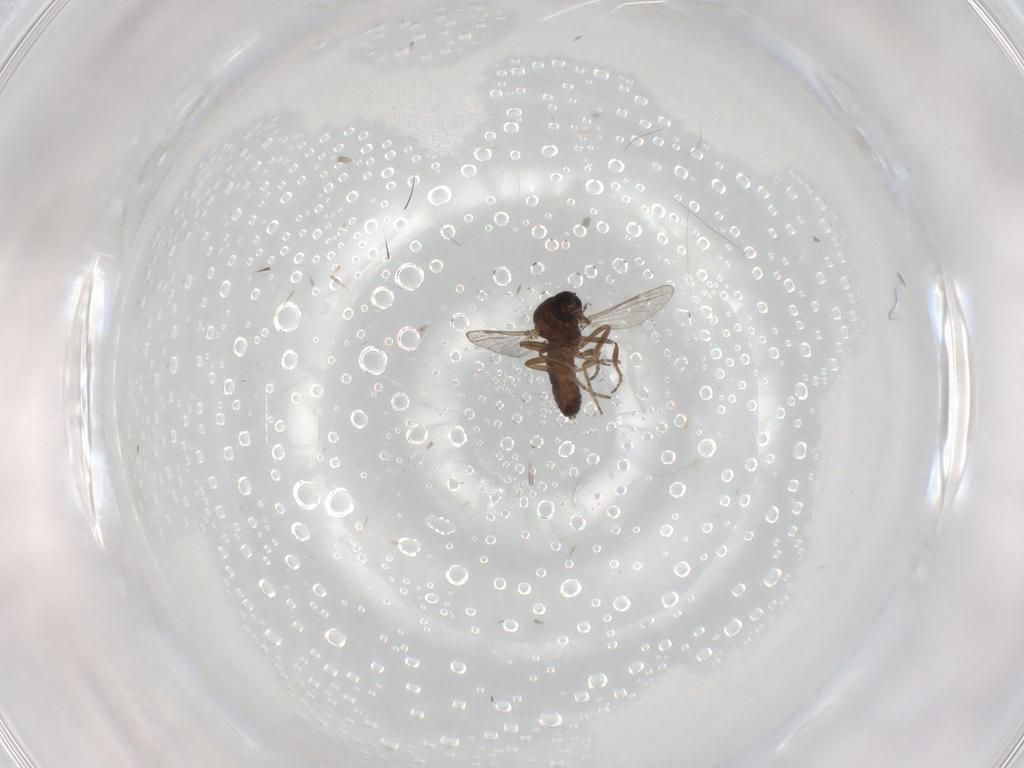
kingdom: Animalia
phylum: Arthropoda
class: Insecta
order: Diptera
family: Ceratopogonidae
